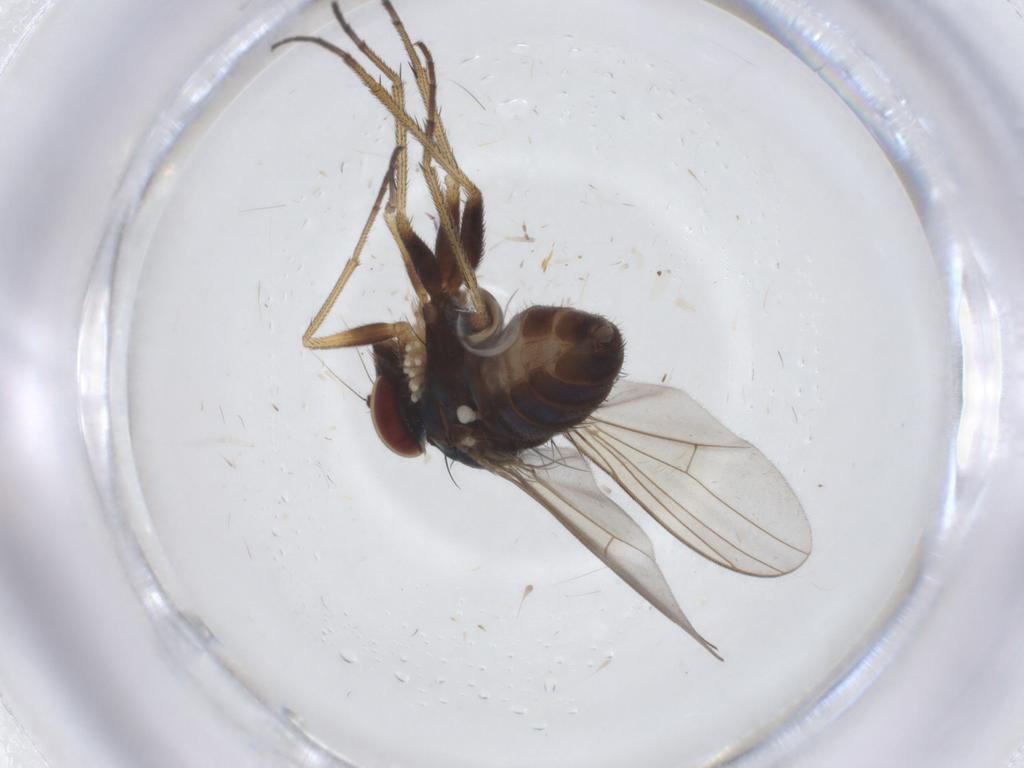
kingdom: Animalia
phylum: Arthropoda
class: Insecta
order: Diptera
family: Dolichopodidae
